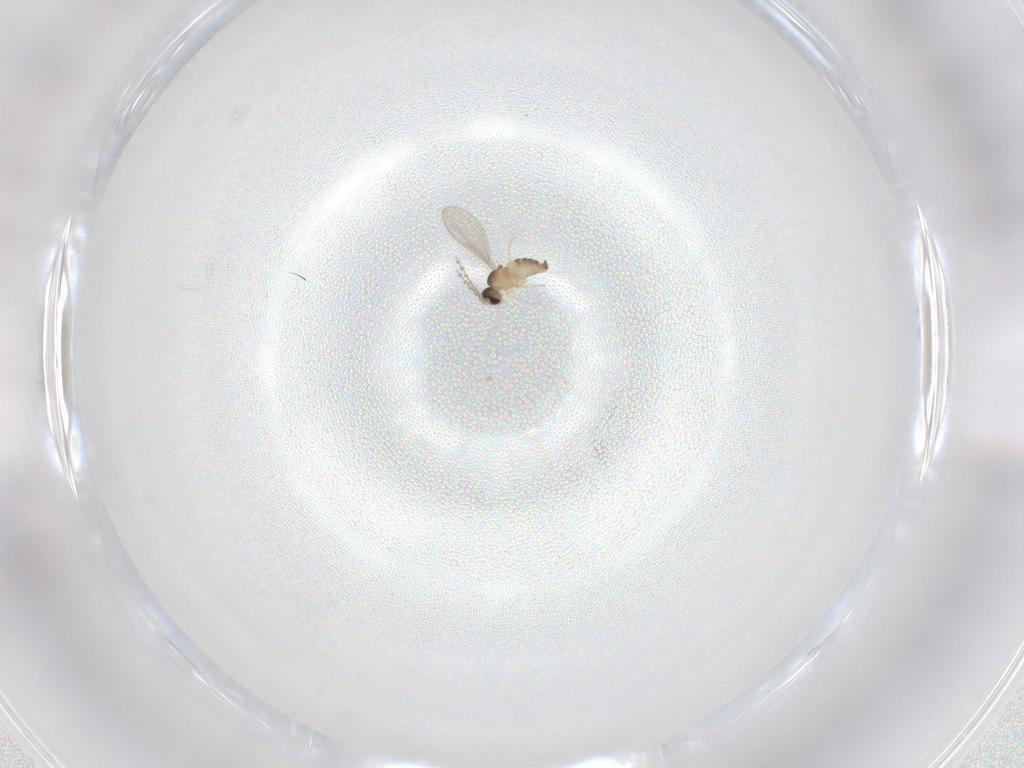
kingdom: Animalia
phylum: Arthropoda
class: Insecta
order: Diptera
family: Cecidomyiidae
